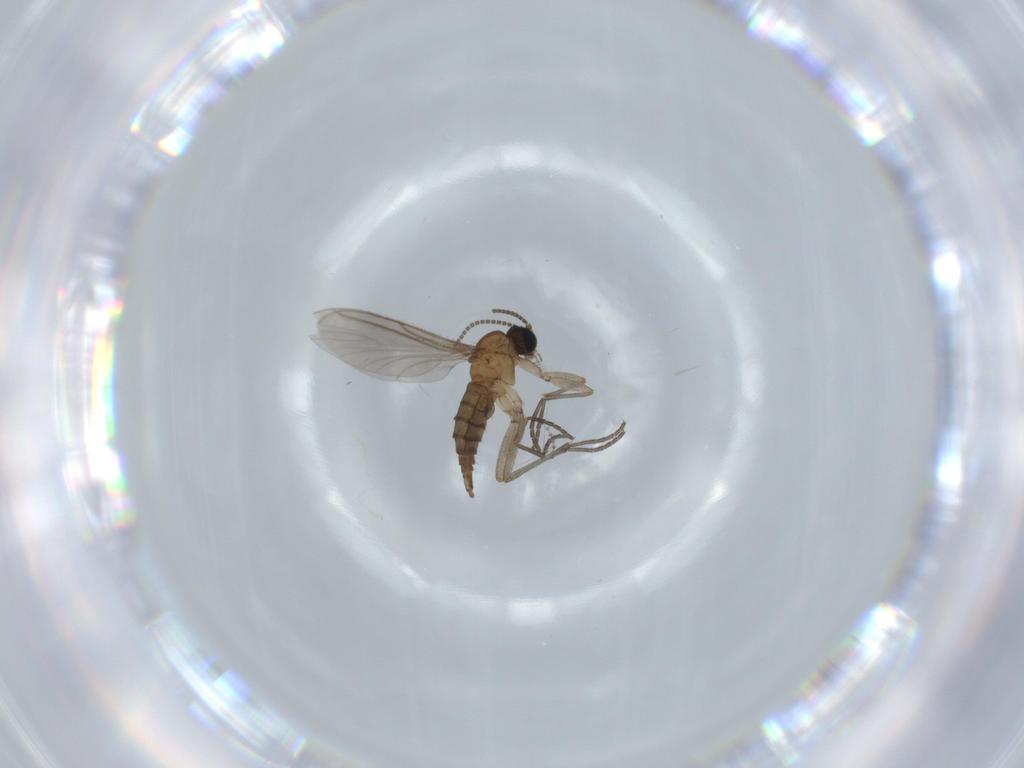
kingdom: Animalia
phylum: Arthropoda
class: Insecta
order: Diptera
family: Sciaridae
